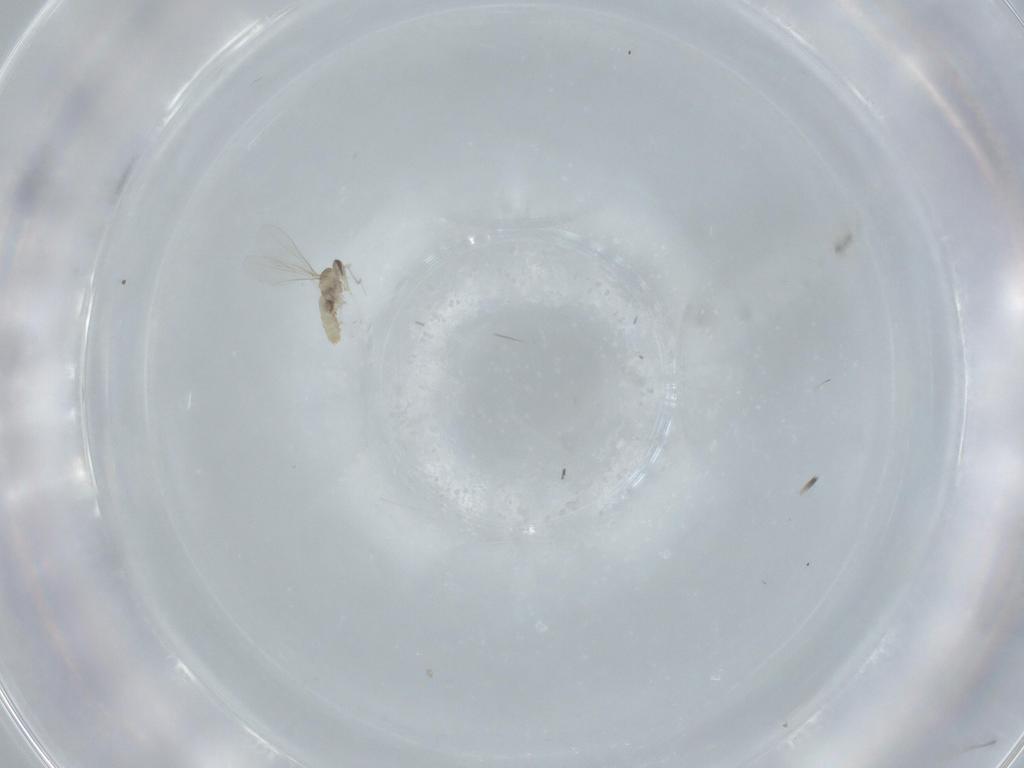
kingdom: Animalia
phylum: Arthropoda
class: Insecta
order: Diptera
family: Cecidomyiidae
